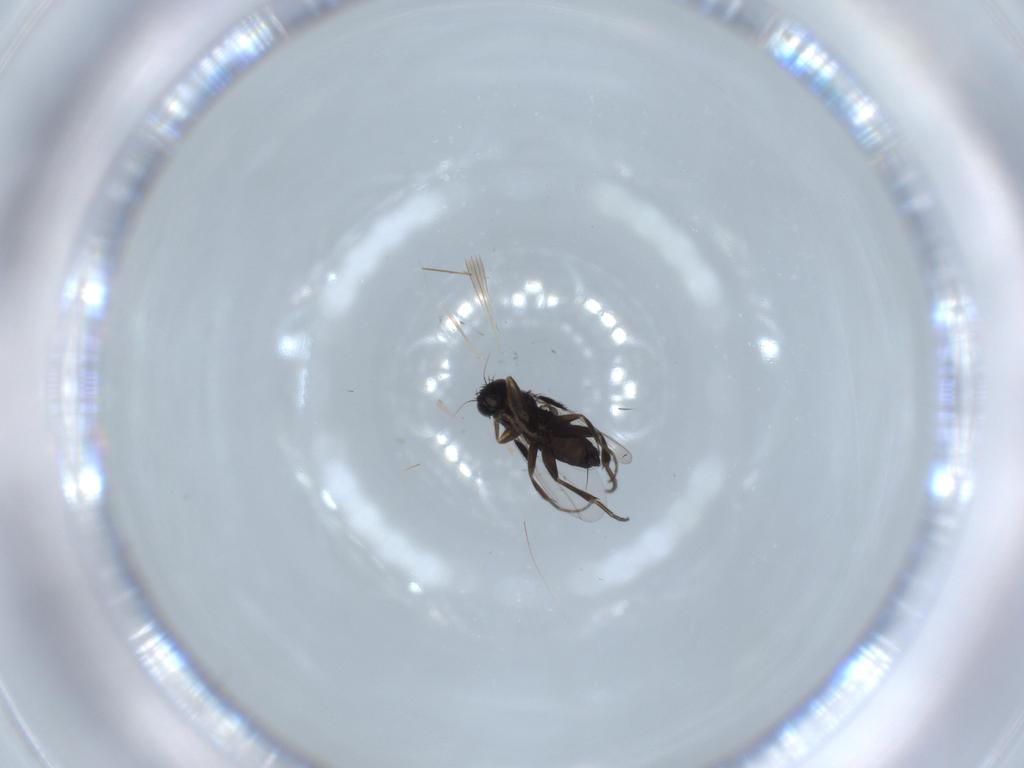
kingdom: Animalia
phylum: Arthropoda
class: Insecta
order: Diptera
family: Phoridae
